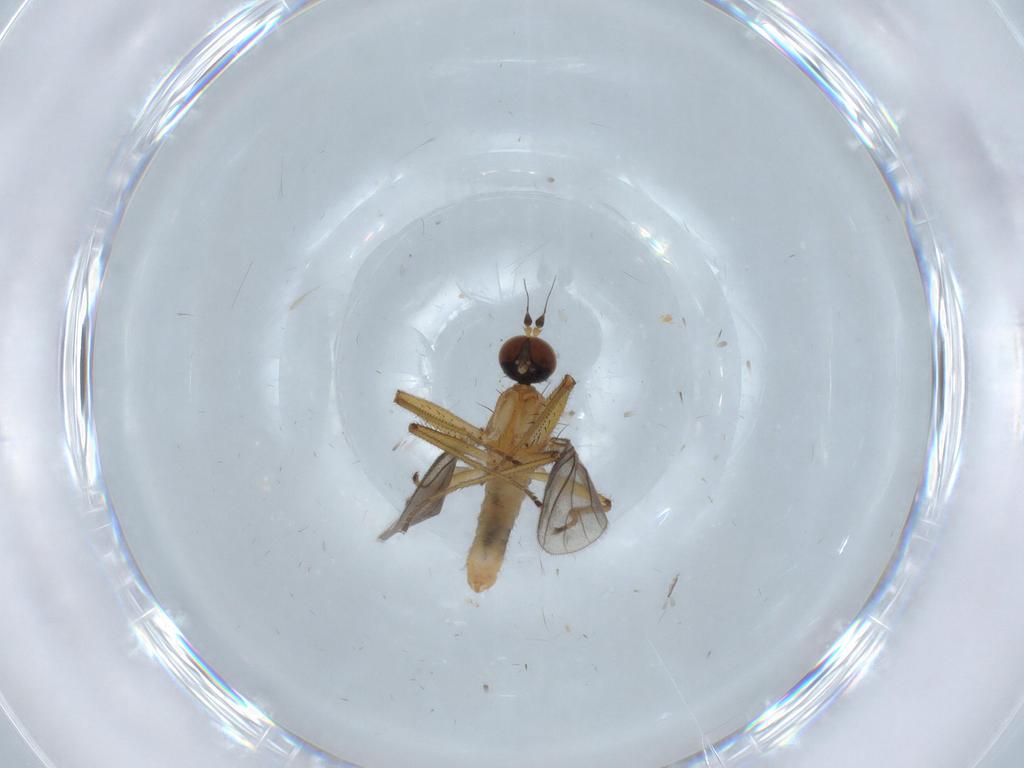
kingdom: Animalia
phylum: Arthropoda
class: Insecta
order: Diptera
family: Empididae
